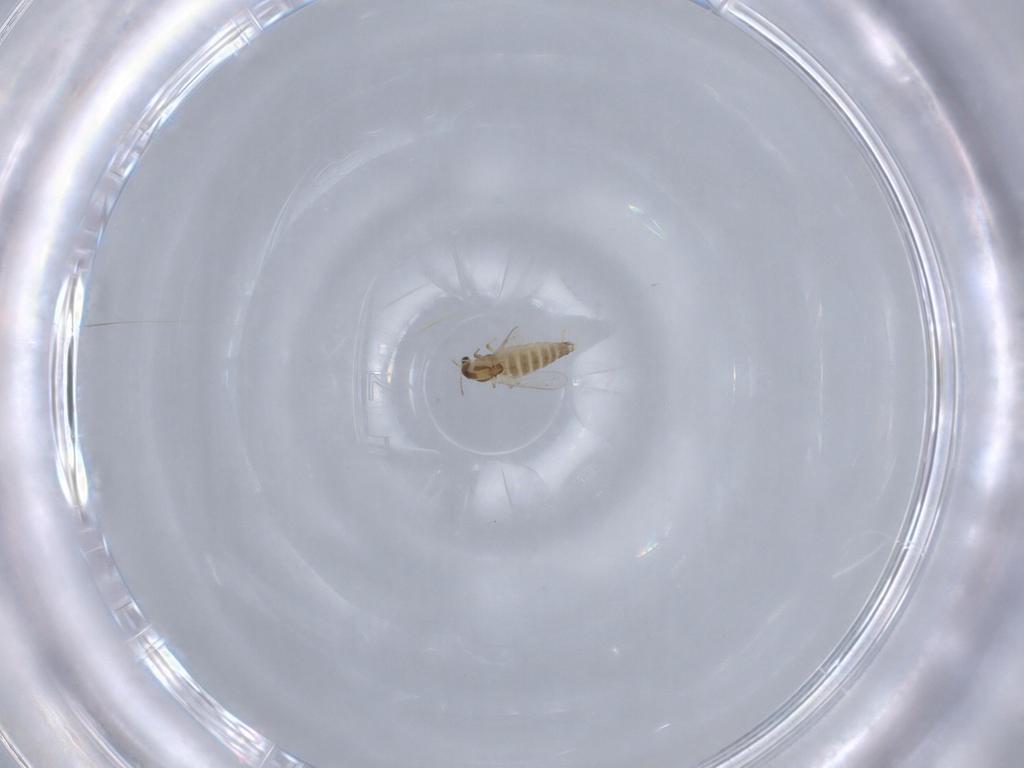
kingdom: Animalia
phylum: Arthropoda
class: Insecta
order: Diptera
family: Chironomidae
